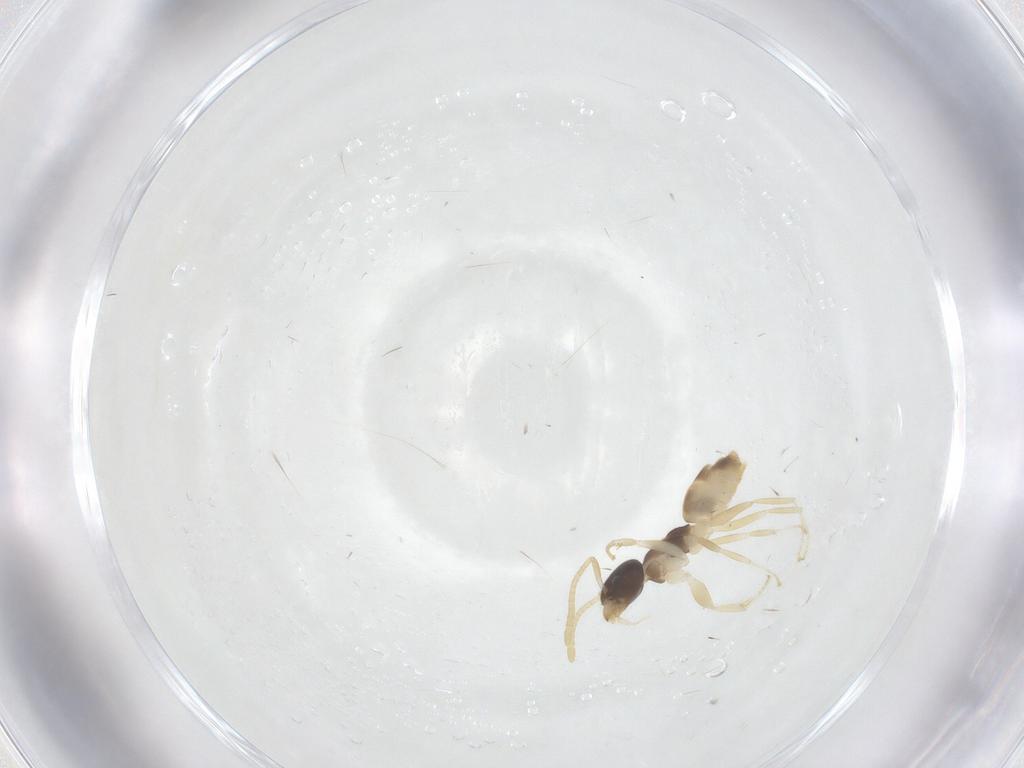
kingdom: Animalia
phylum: Arthropoda
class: Insecta
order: Hymenoptera
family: Formicidae
